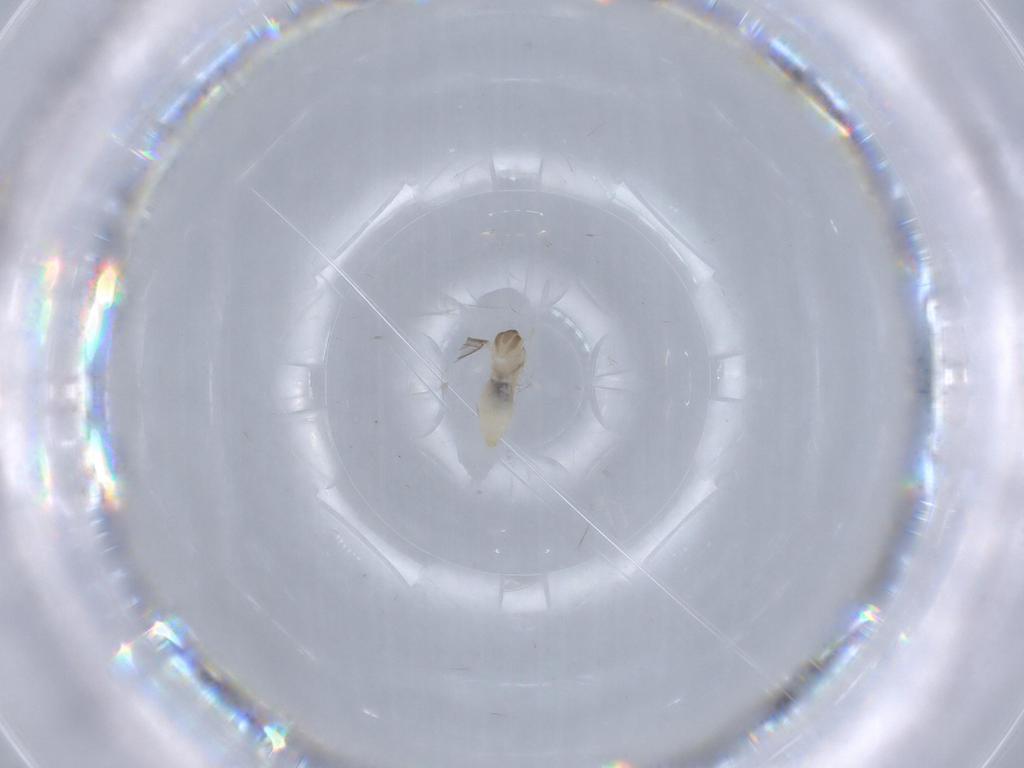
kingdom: Animalia
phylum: Arthropoda
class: Insecta
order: Diptera
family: Cecidomyiidae
